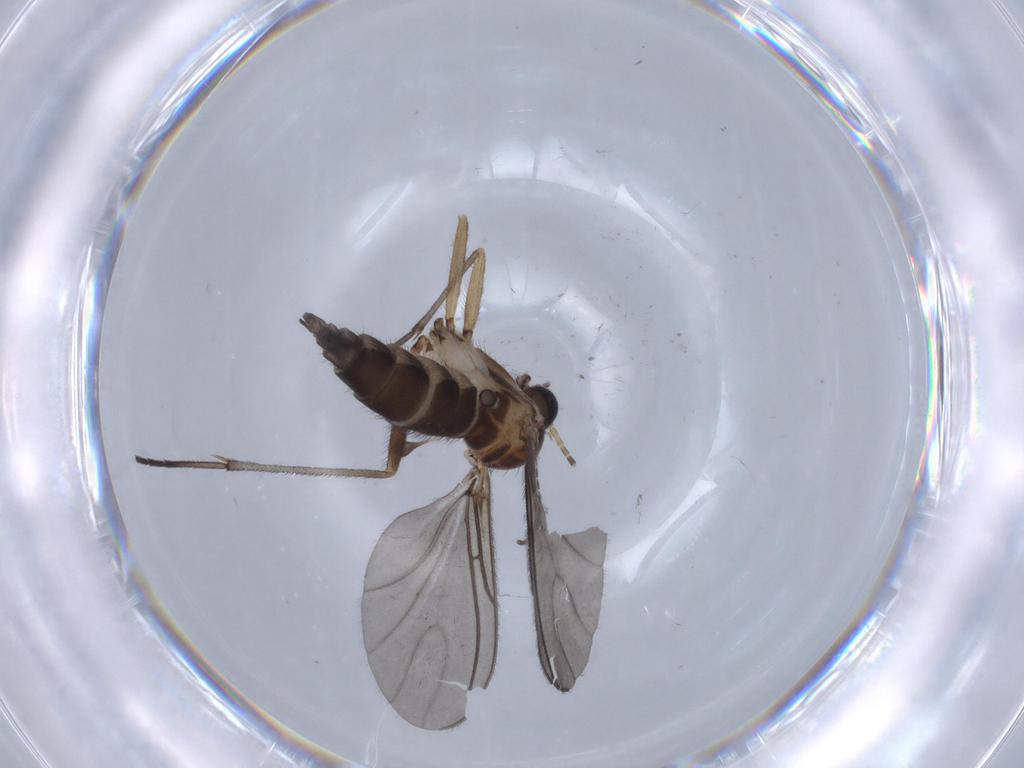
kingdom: Animalia
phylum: Arthropoda
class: Insecta
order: Diptera
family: Sciaridae
